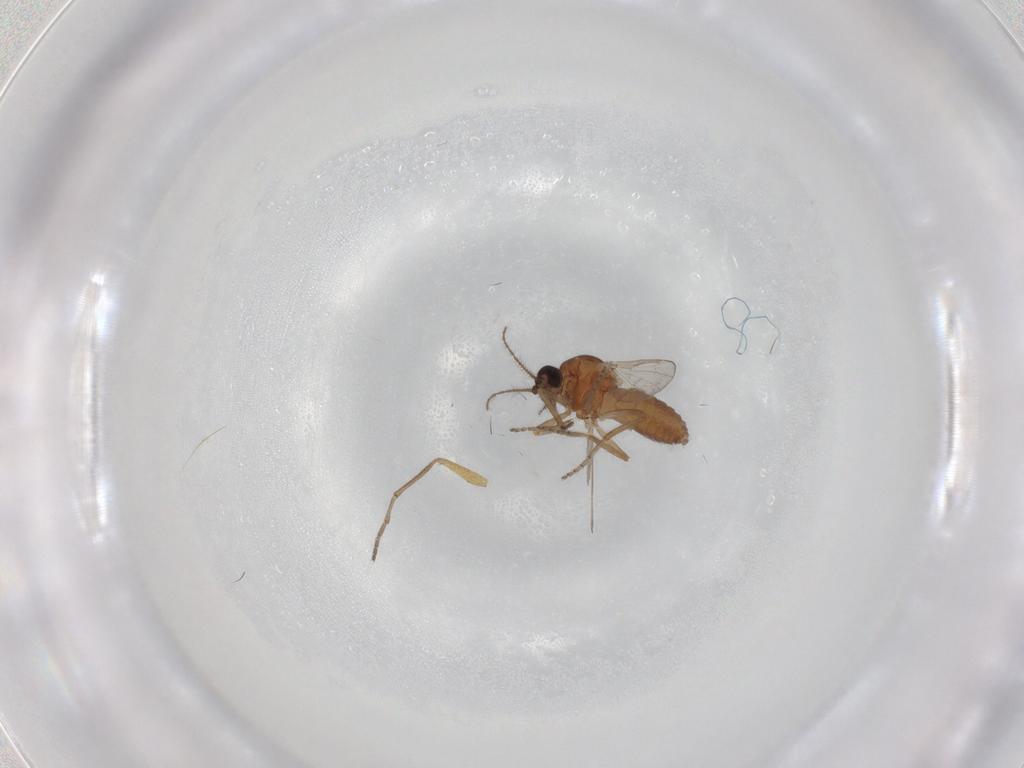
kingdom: Animalia
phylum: Arthropoda
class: Insecta
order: Diptera
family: Ceratopogonidae
